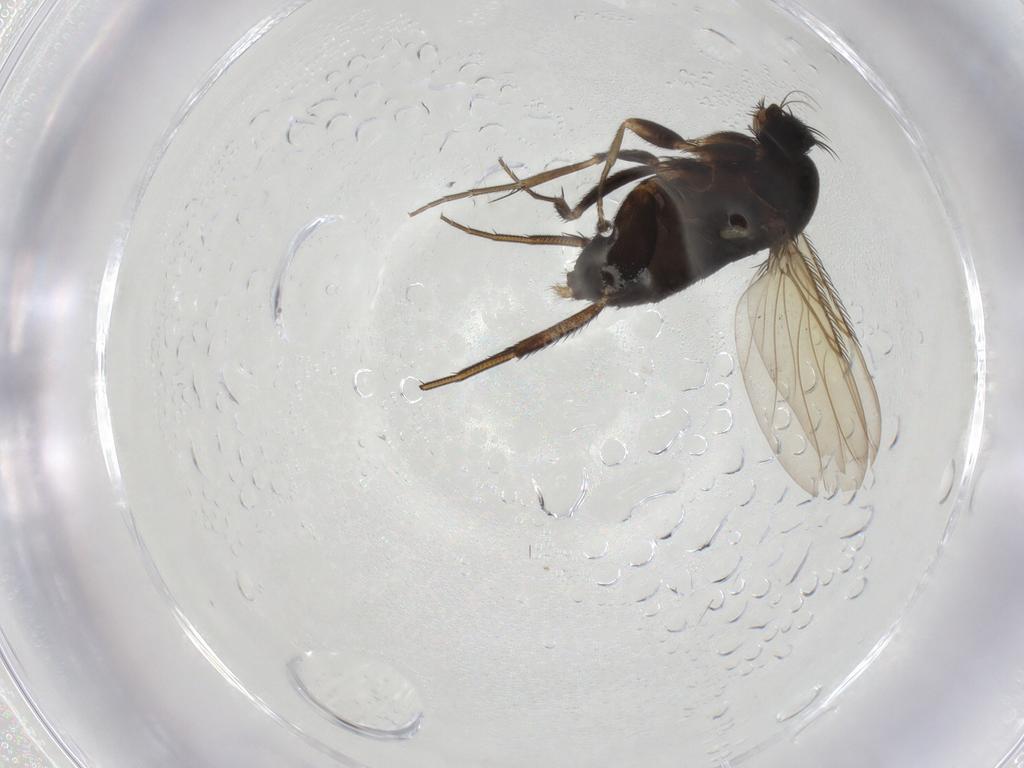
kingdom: Animalia
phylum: Arthropoda
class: Insecta
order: Diptera
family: Phoridae
